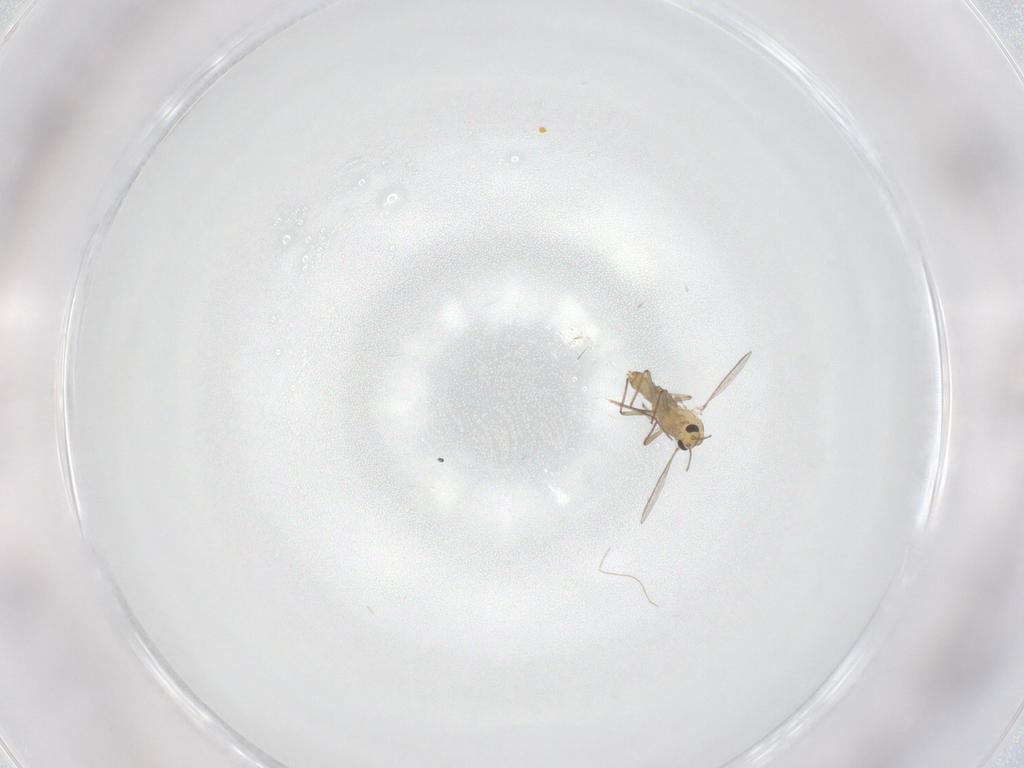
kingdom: Animalia
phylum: Arthropoda
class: Insecta
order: Diptera
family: Chironomidae
